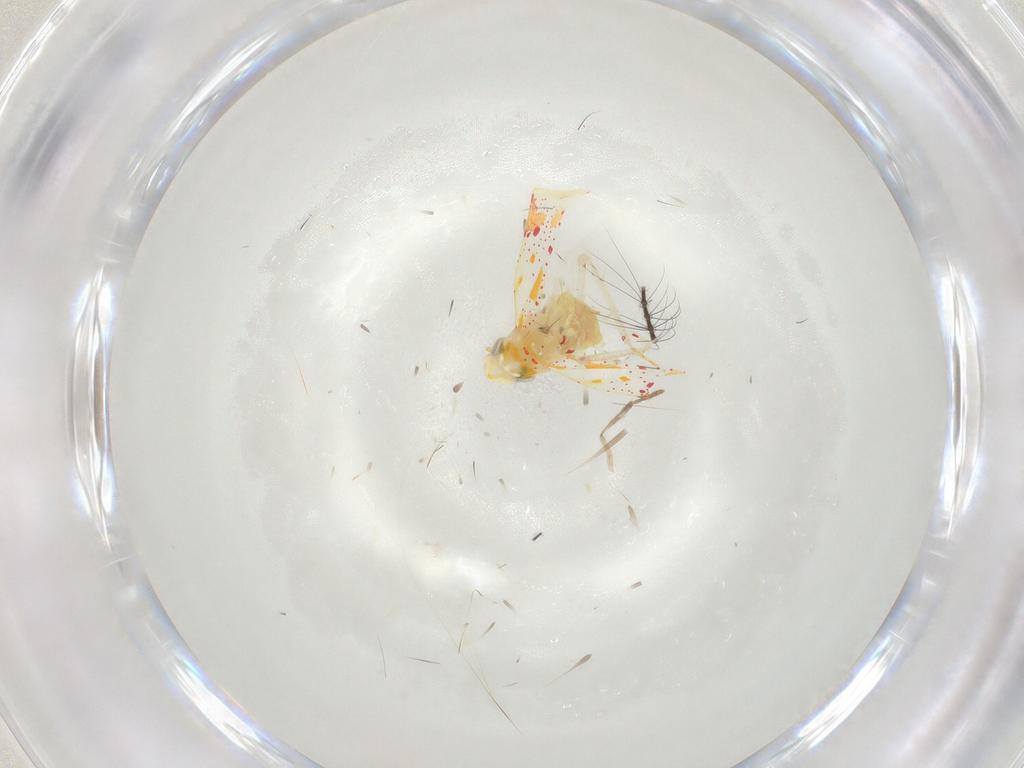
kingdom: Animalia
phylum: Arthropoda
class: Insecta
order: Hemiptera
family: Cicadellidae
